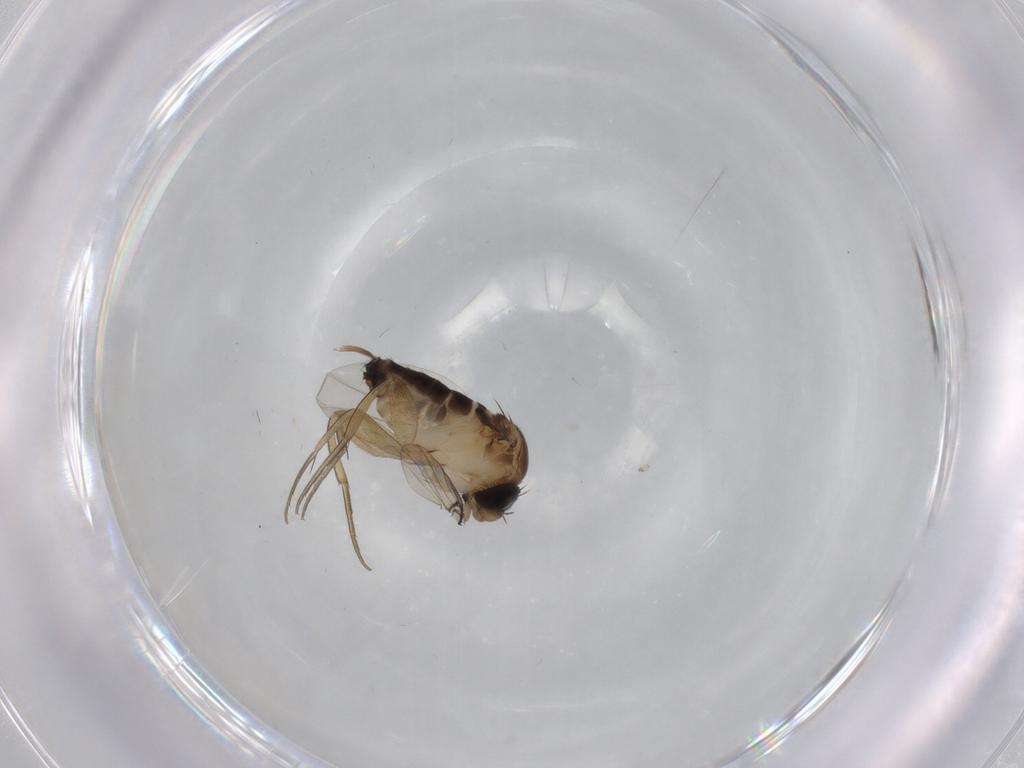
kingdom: Animalia
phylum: Arthropoda
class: Insecta
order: Diptera
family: Phoridae
